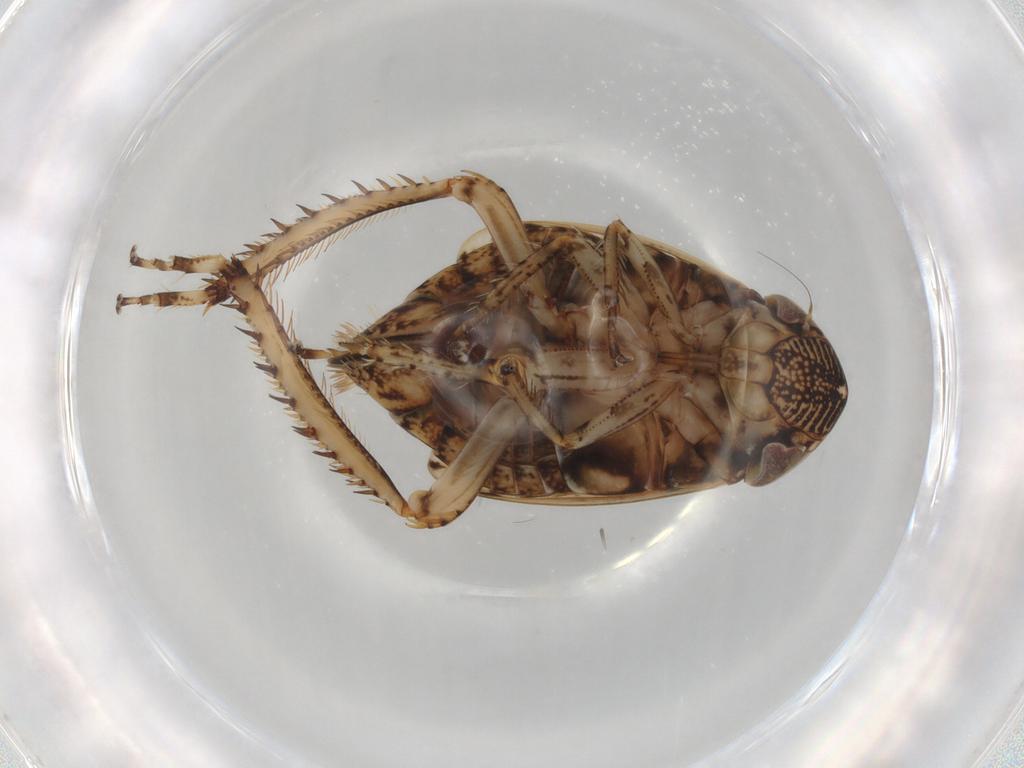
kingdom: Animalia
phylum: Arthropoda
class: Insecta
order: Hemiptera
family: Cicadellidae
